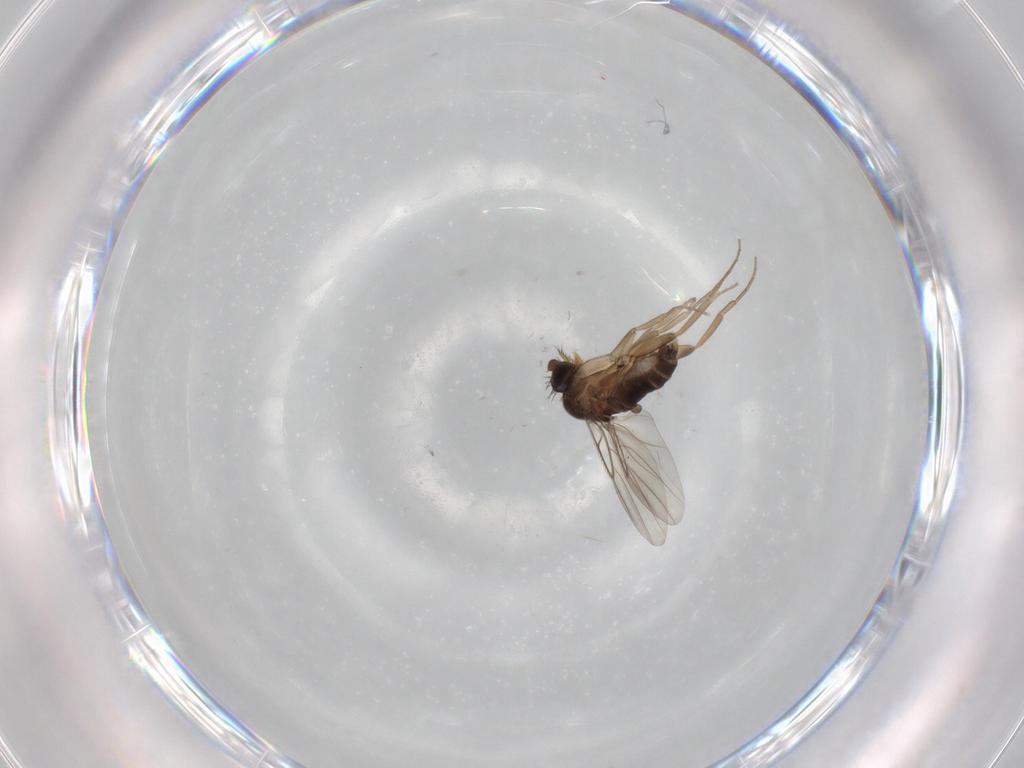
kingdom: Animalia
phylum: Arthropoda
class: Insecta
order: Diptera
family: Phoridae
